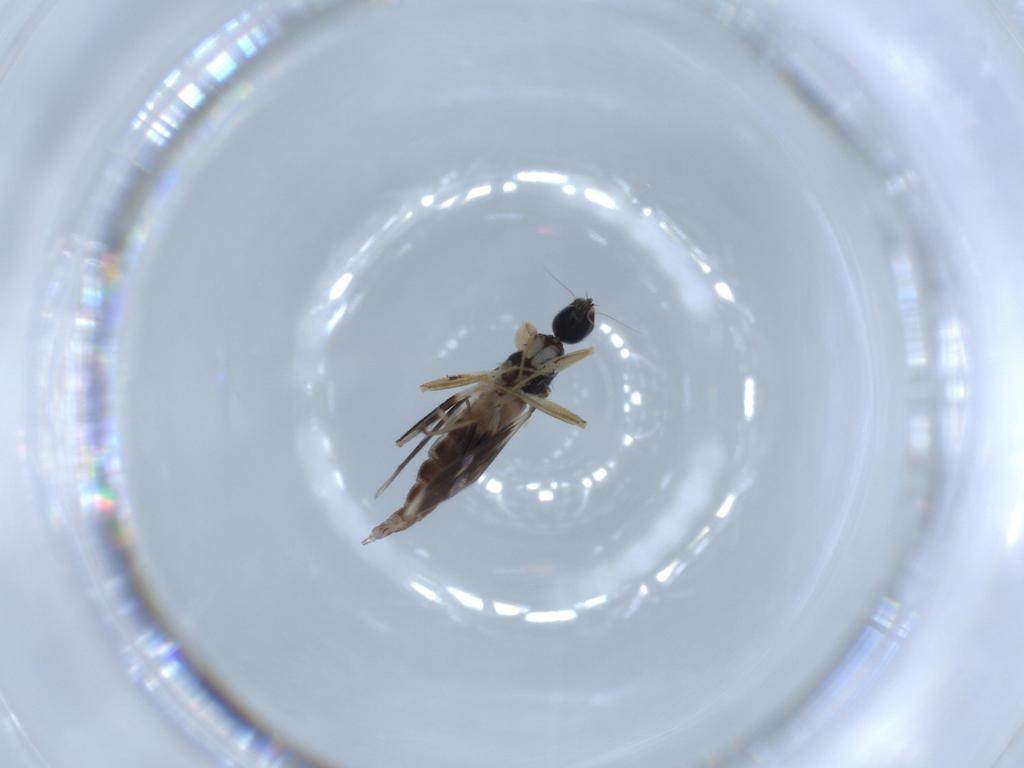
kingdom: Animalia
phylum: Arthropoda
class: Insecta
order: Diptera
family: Hybotidae
